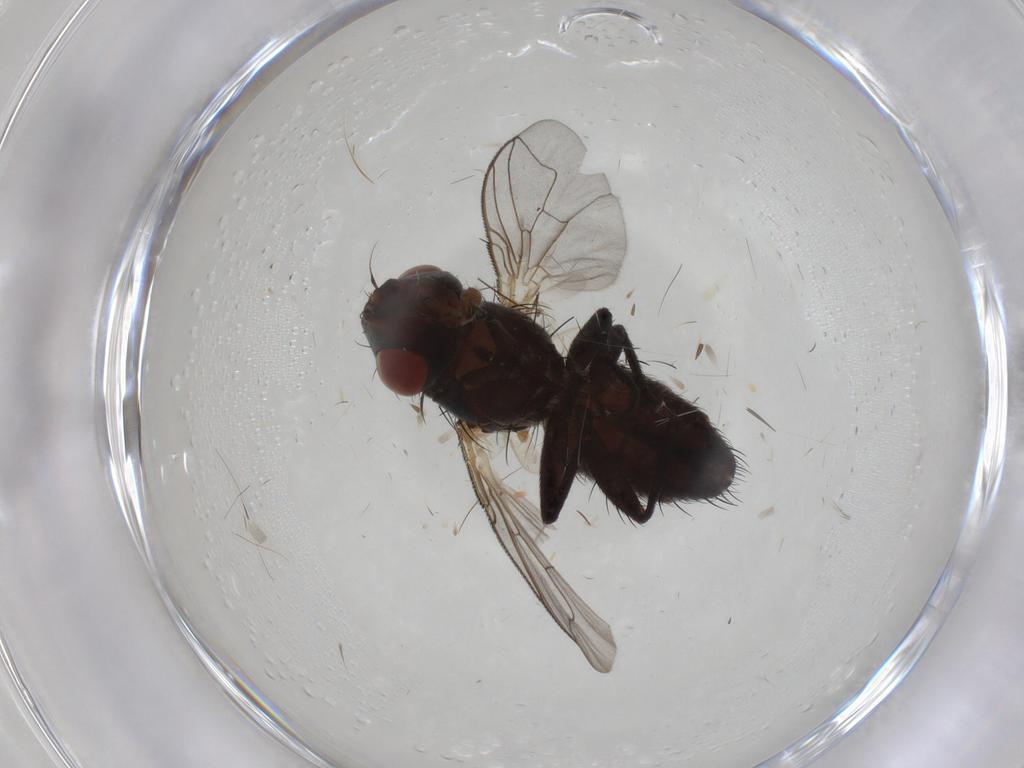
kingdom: Animalia
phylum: Arthropoda
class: Insecta
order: Diptera
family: Sarcophagidae
